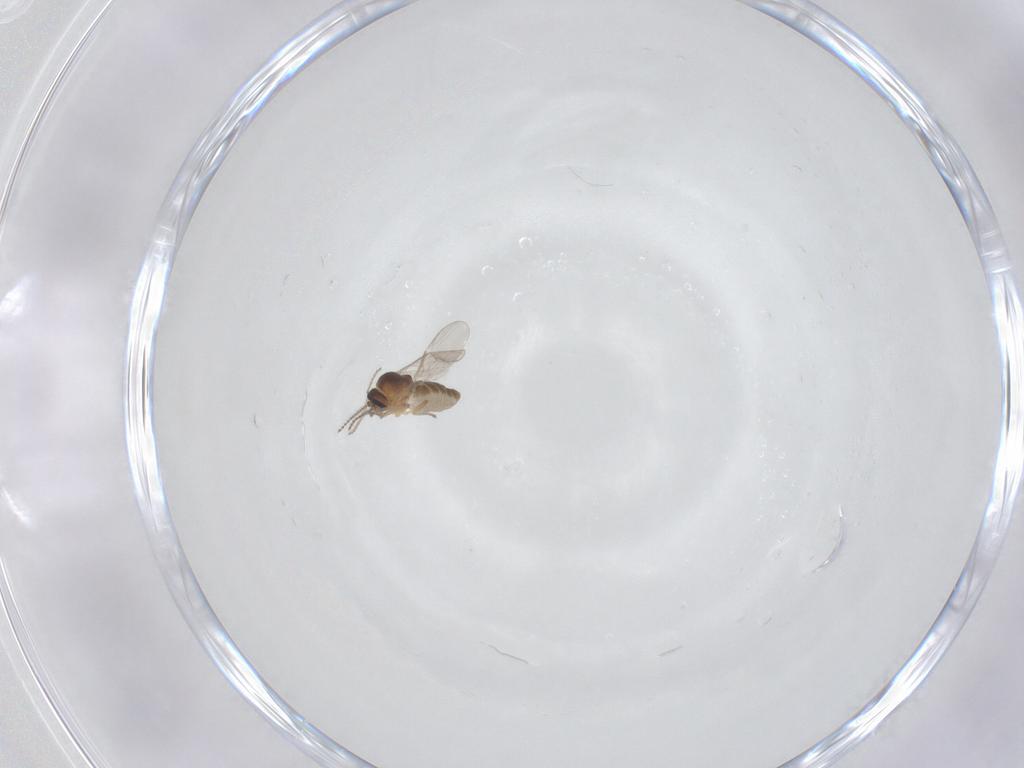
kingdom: Animalia
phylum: Arthropoda
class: Insecta
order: Diptera
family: Ceratopogonidae
